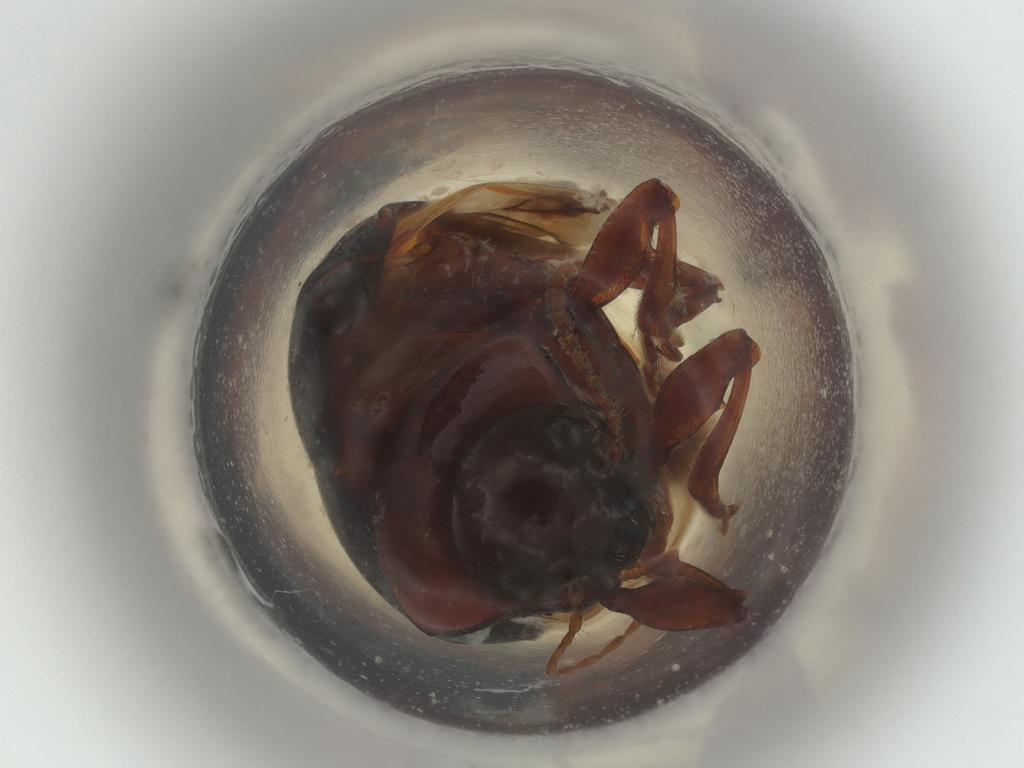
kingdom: Animalia
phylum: Arthropoda
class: Insecta
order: Coleoptera
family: Chrysomelidae
